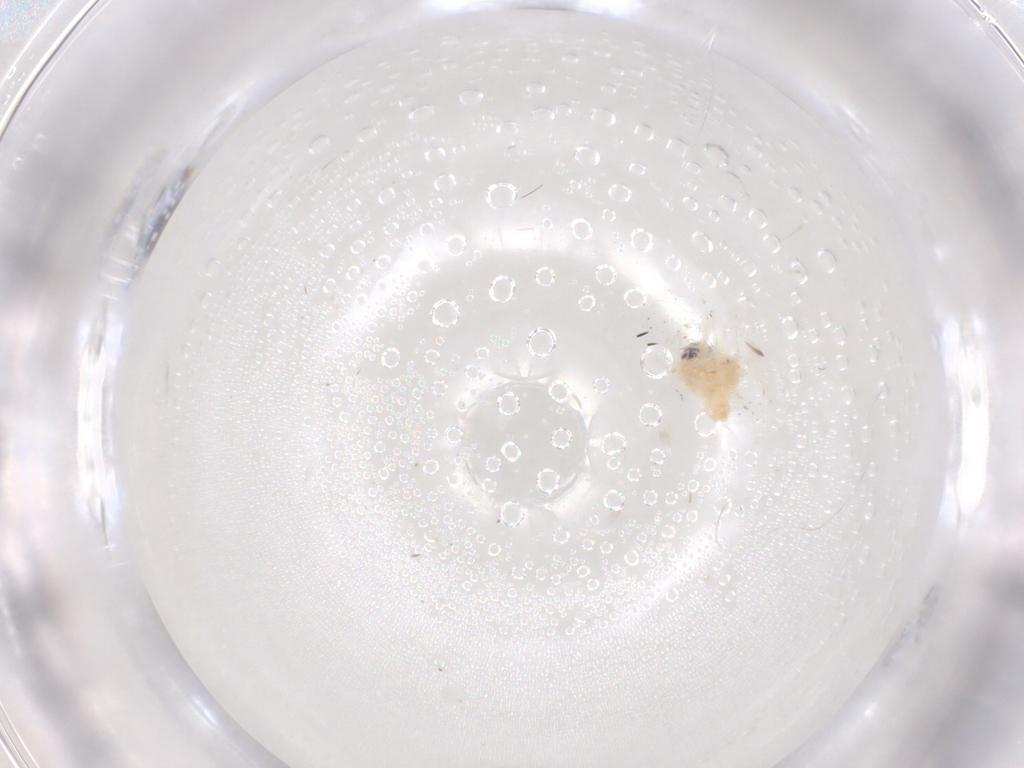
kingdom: Animalia
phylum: Arthropoda
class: Insecta
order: Neuroptera
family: Coniopterygidae
